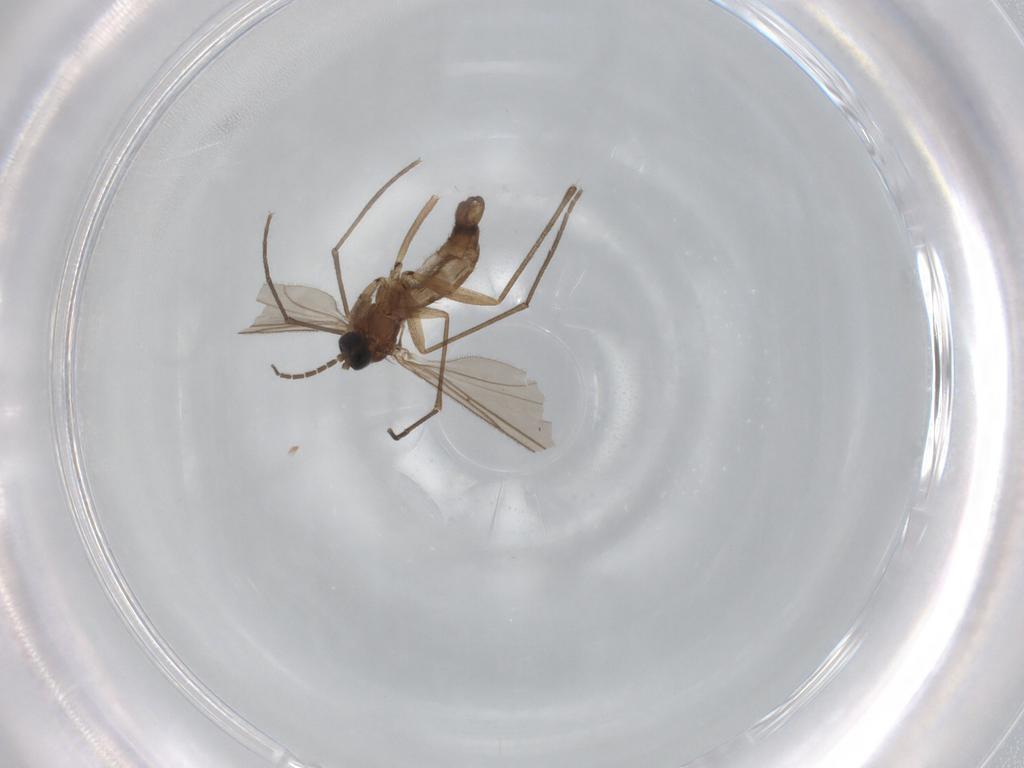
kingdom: Animalia
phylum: Arthropoda
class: Insecta
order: Diptera
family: Sciaridae
